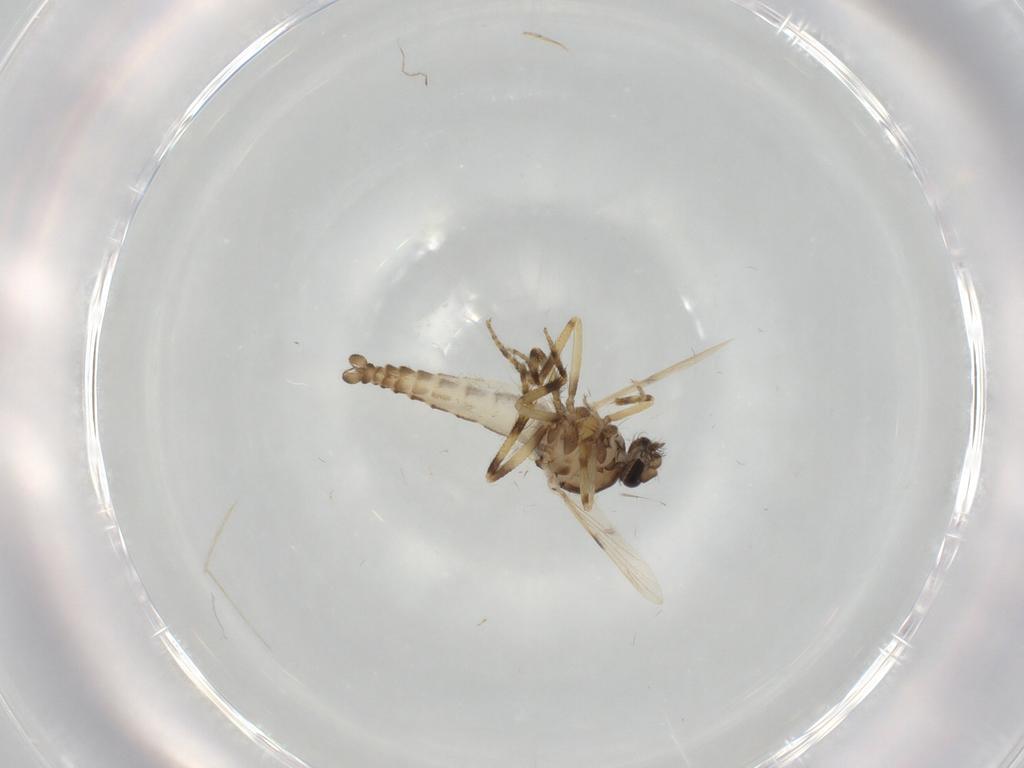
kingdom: Animalia
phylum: Arthropoda
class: Insecta
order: Diptera
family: Ceratopogonidae
